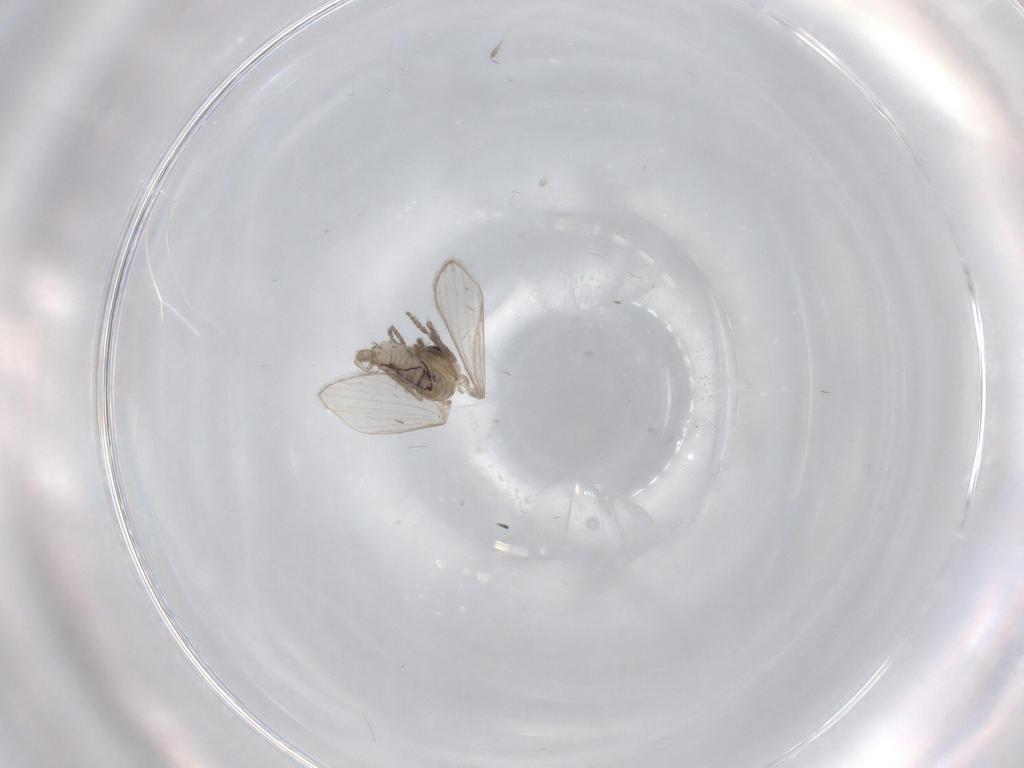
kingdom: Animalia
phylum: Arthropoda
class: Insecta
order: Diptera
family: Psychodidae
